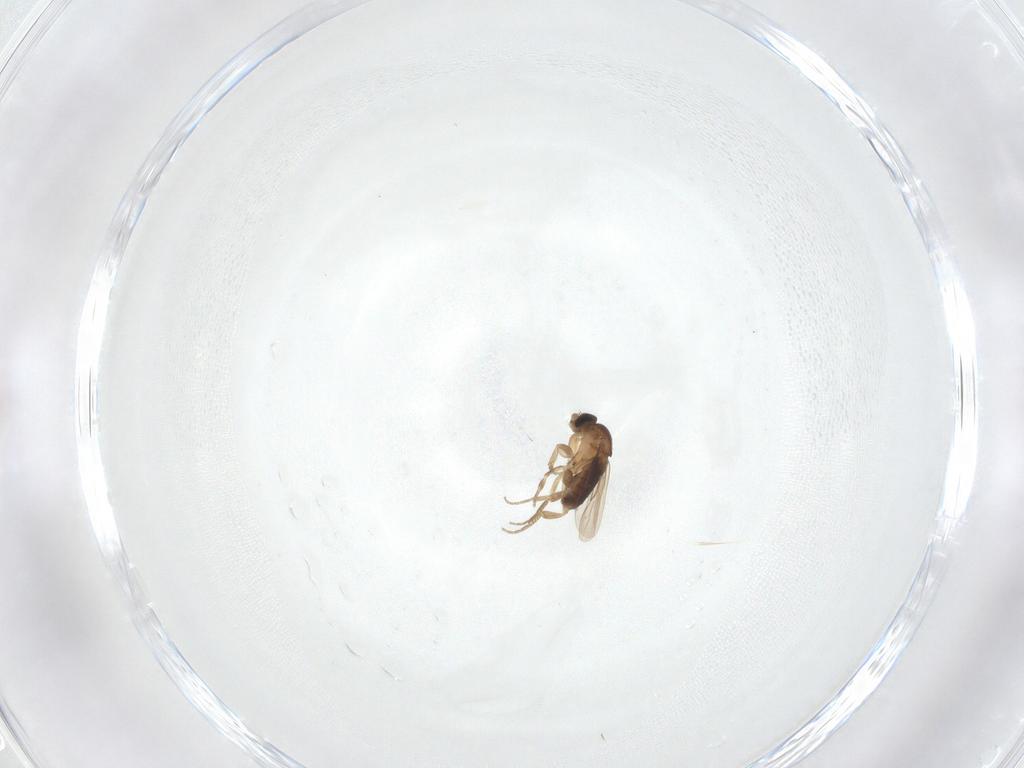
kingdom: Animalia
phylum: Arthropoda
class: Insecta
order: Diptera
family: Phoridae
